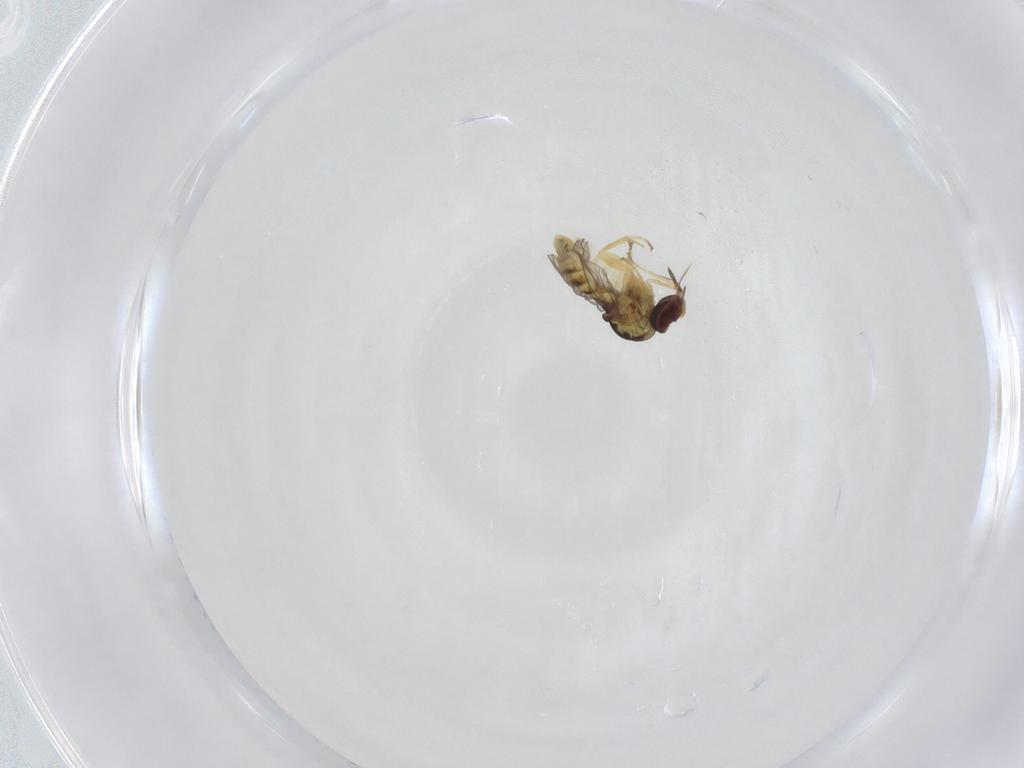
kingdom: Animalia
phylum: Arthropoda
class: Insecta
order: Diptera
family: Mythicomyiidae
